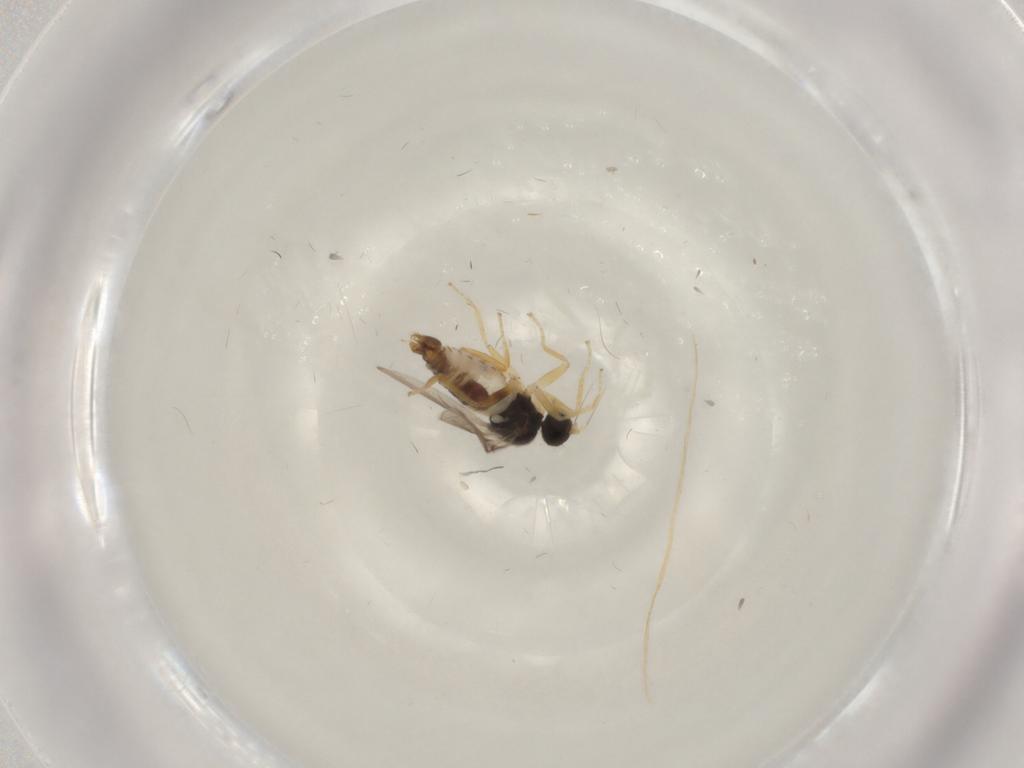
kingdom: Animalia
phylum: Arthropoda
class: Insecta
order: Diptera
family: Hybotidae
